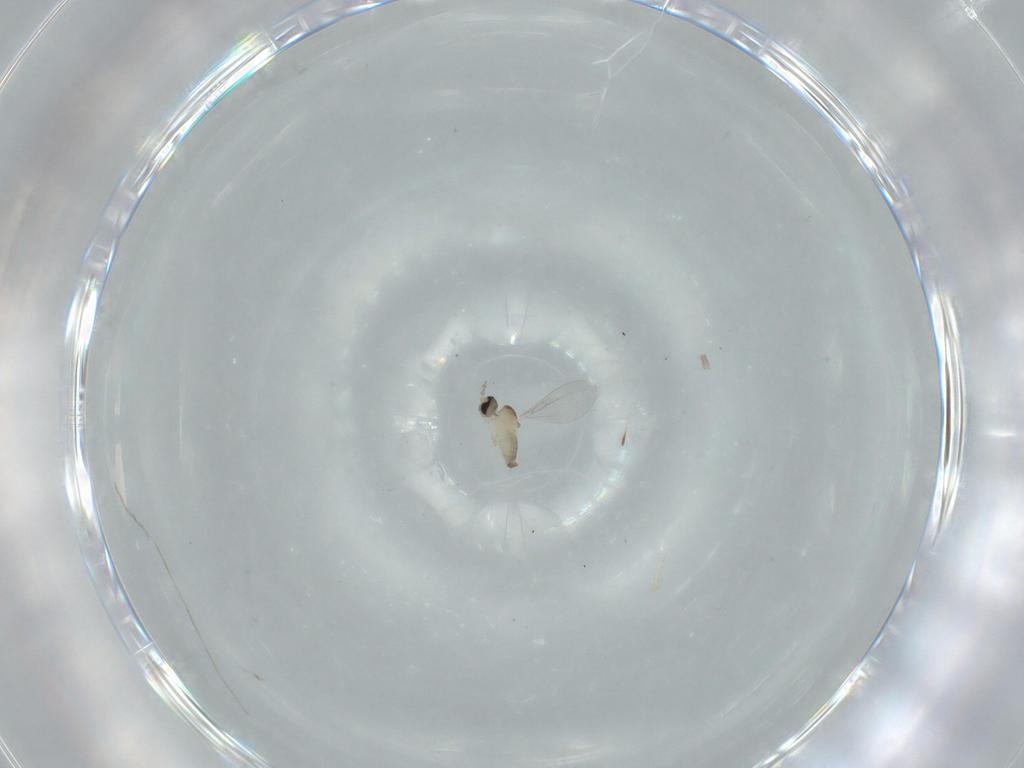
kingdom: Animalia
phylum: Arthropoda
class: Insecta
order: Diptera
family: Cecidomyiidae
